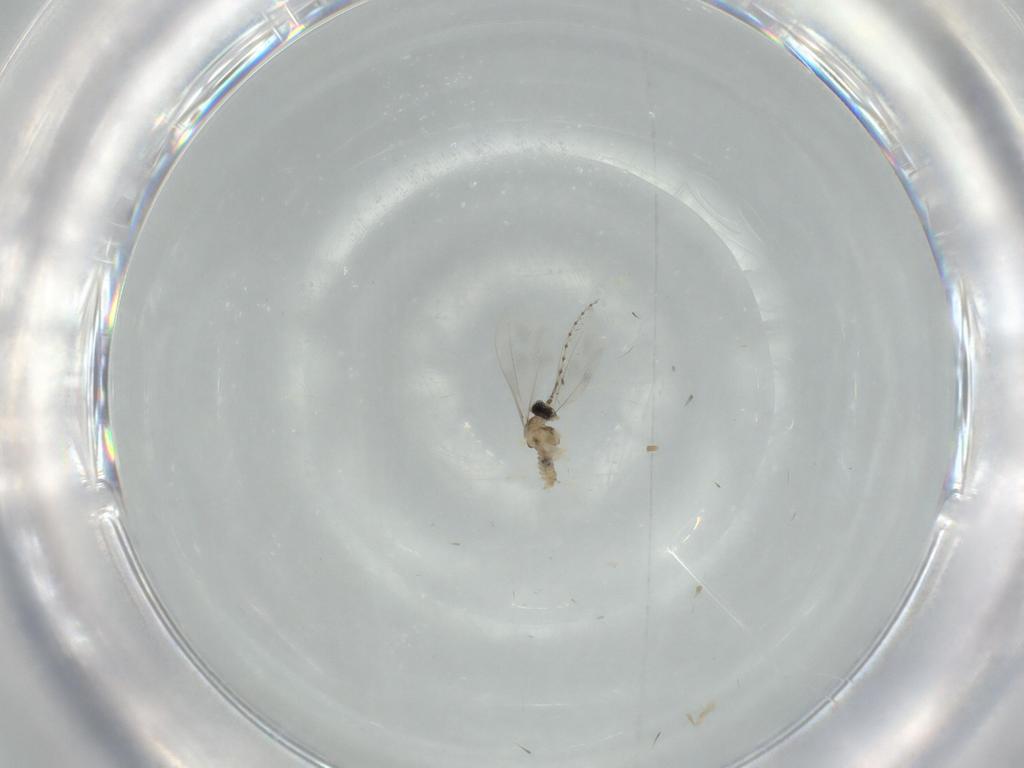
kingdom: Animalia
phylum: Arthropoda
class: Insecta
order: Diptera
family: Cecidomyiidae
